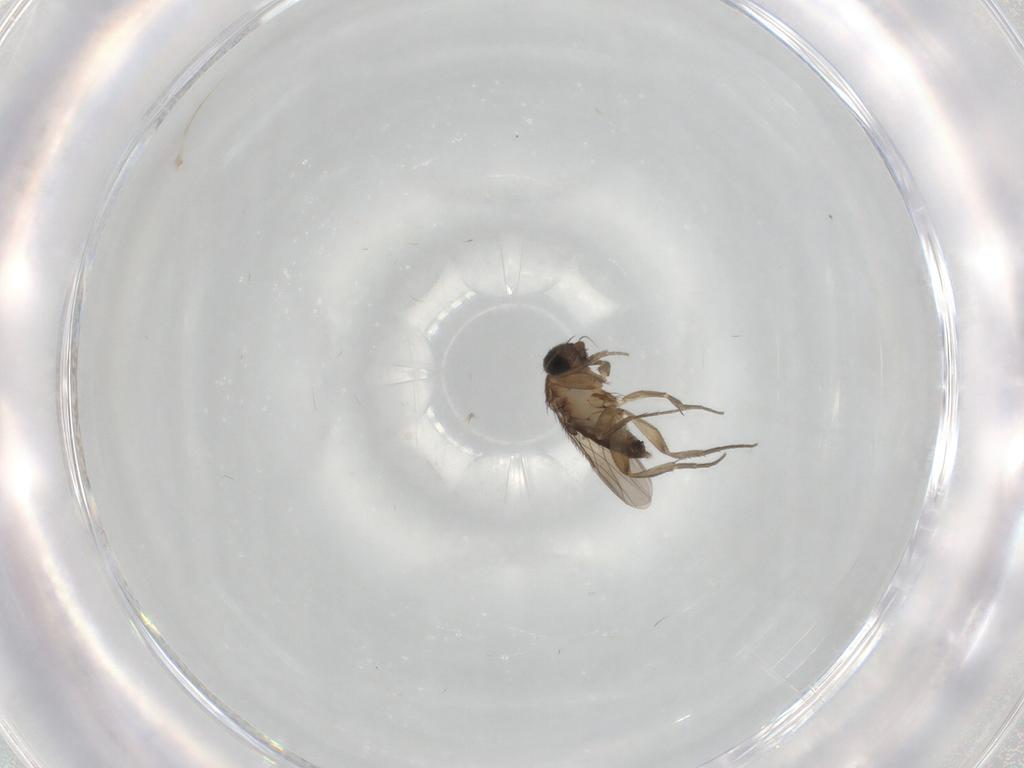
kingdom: Animalia
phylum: Arthropoda
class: Insecta
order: Diptera
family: Phoridae
